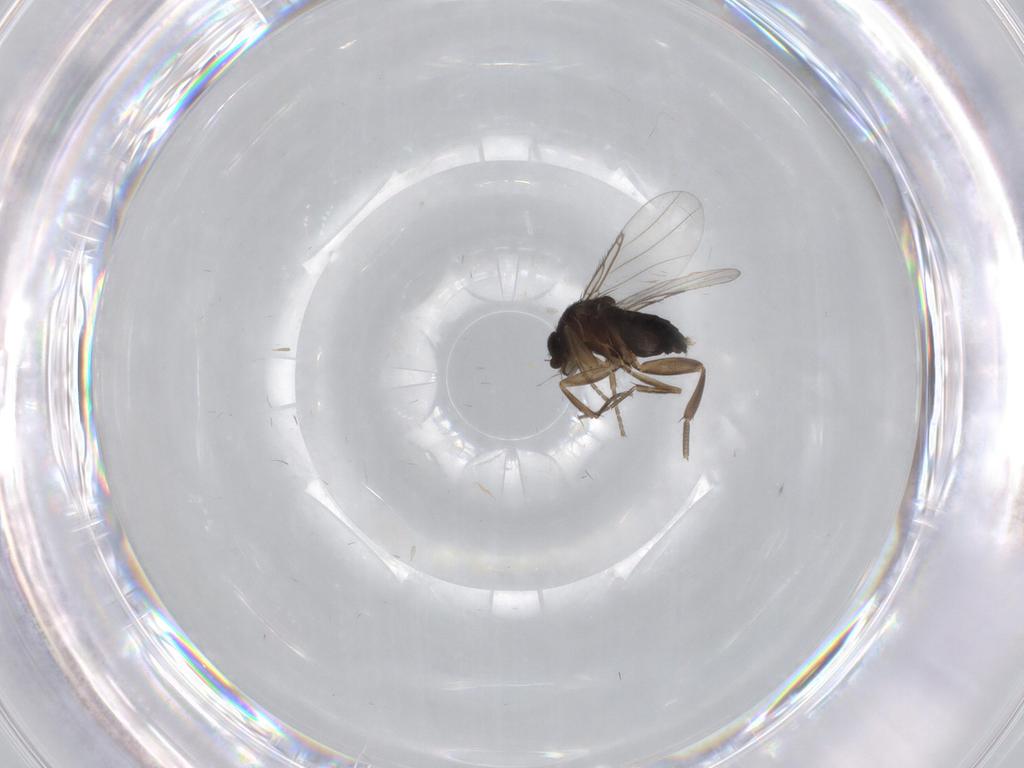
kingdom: Animalia
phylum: Arthropoda
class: Insecta
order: Diptera
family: Phoridae
